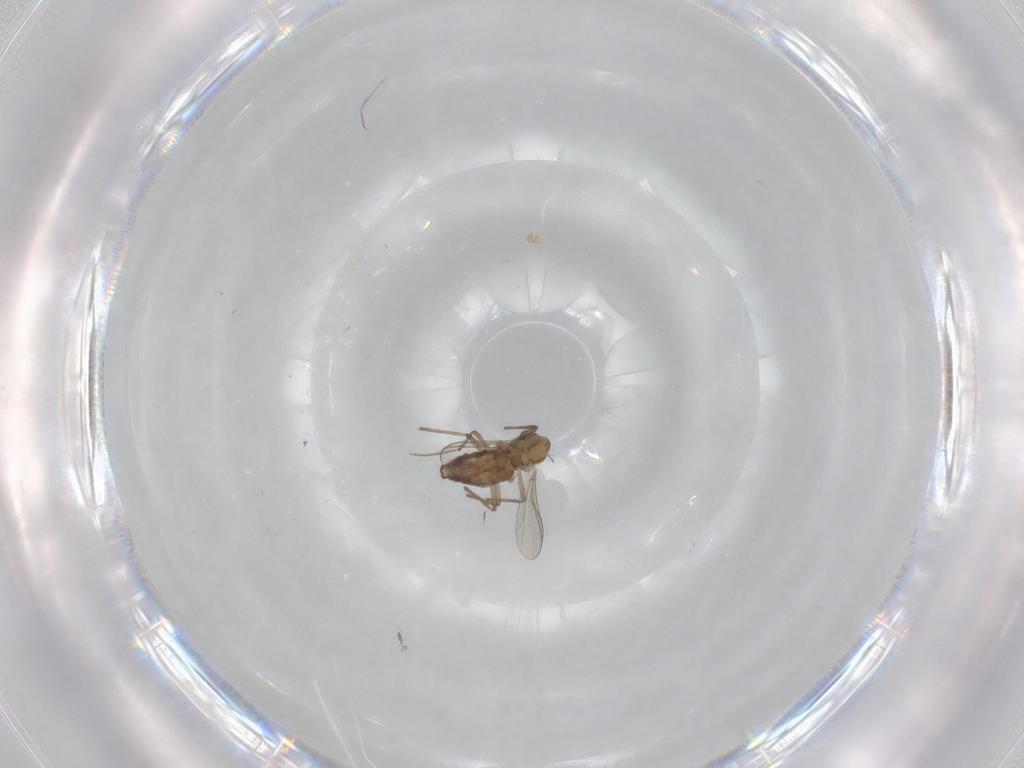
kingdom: Animalia
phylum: Arthropoda
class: Insecta
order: Diptera
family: Chironomidae
